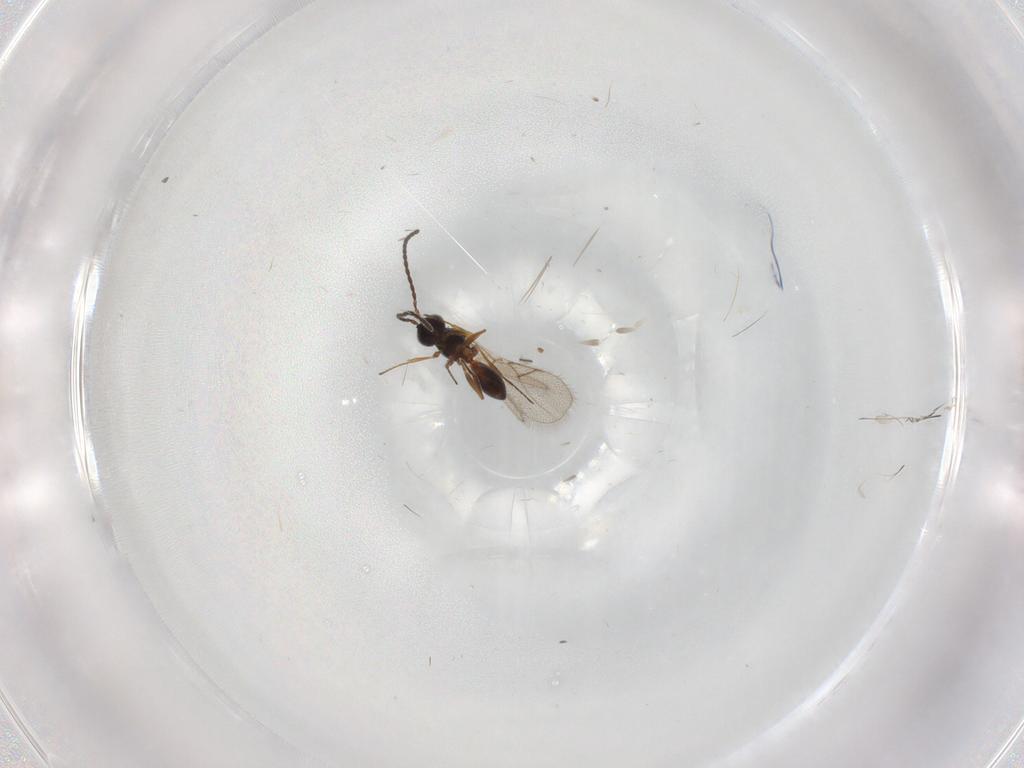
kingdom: Animalia
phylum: Arthropoda
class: Insecta
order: Hymenoptera
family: Figitidae
